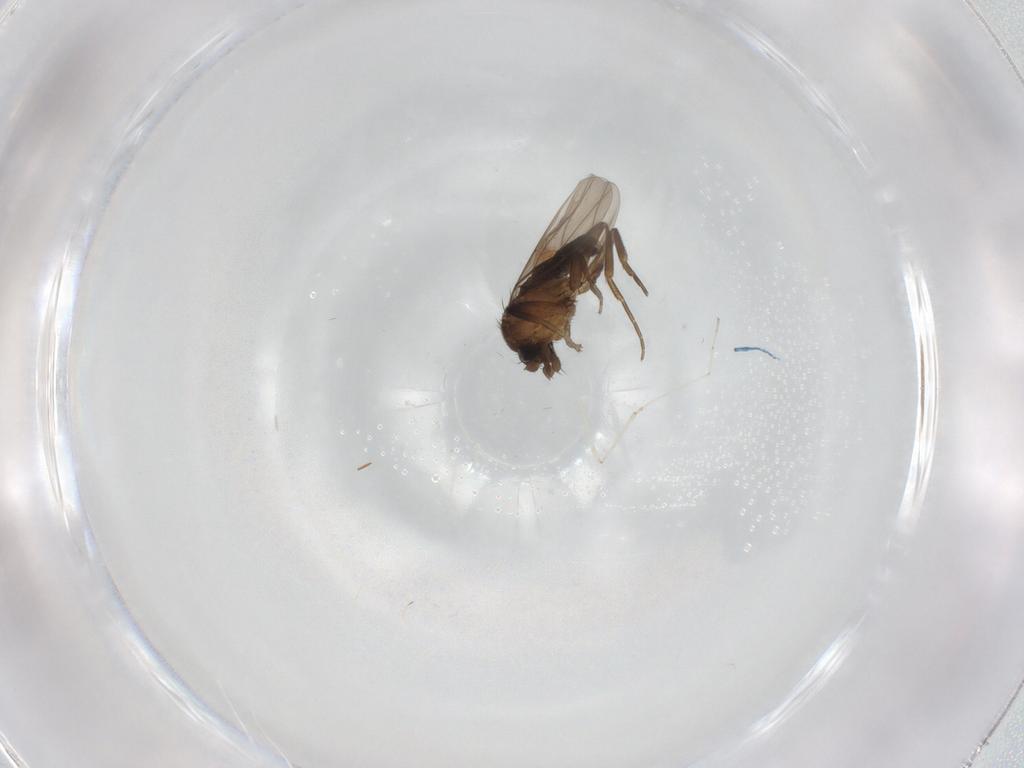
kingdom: Animalia
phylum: Arthropoda
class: Insecta
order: Diptera
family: Phoridae
